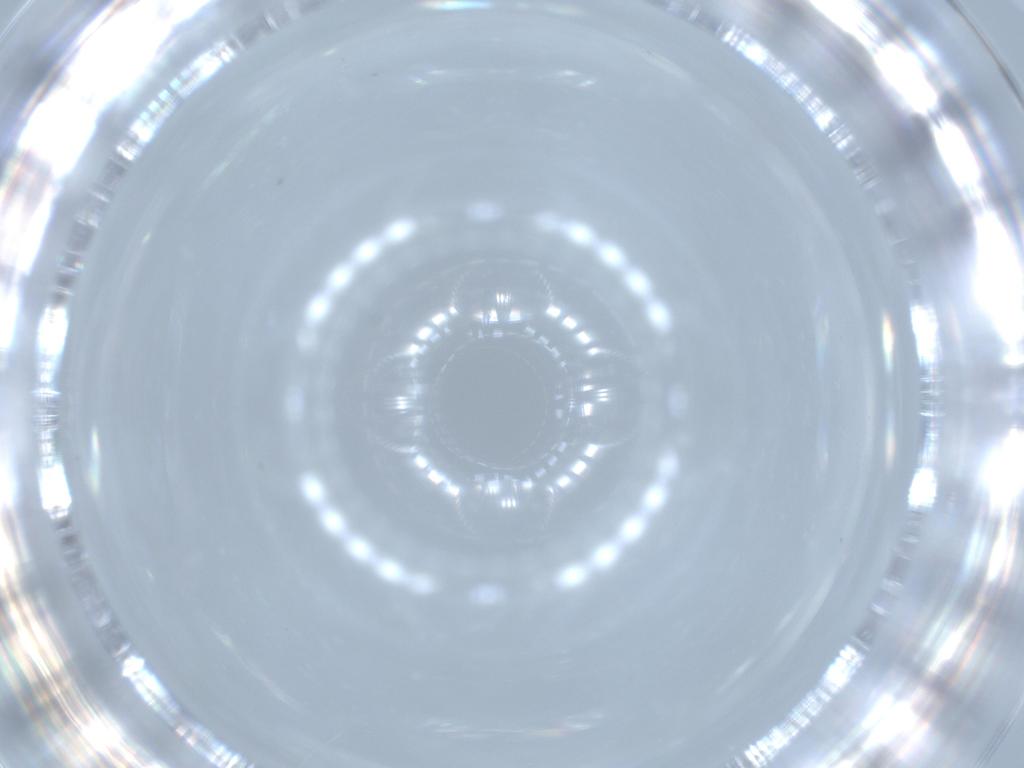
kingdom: Animalia
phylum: Arthropoda
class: Insecta
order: Diptera
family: Cecidomyiidae
